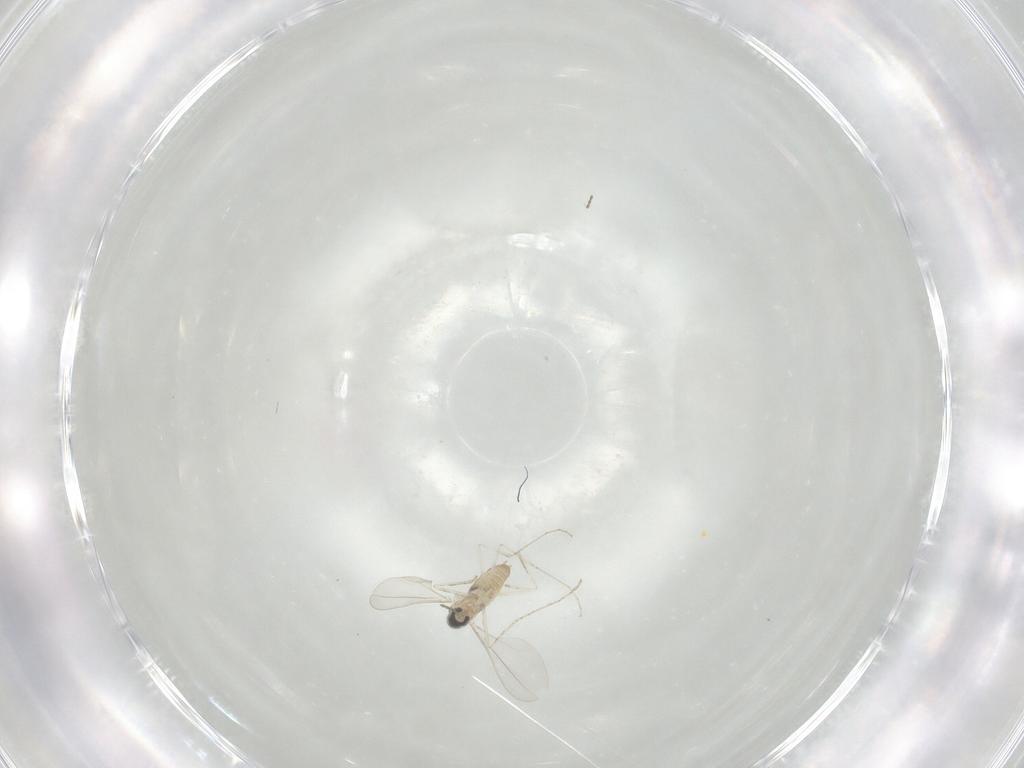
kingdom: Animalia
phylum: Arthropoda
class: Insecta
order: Diptera
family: Cecidomyiidae
